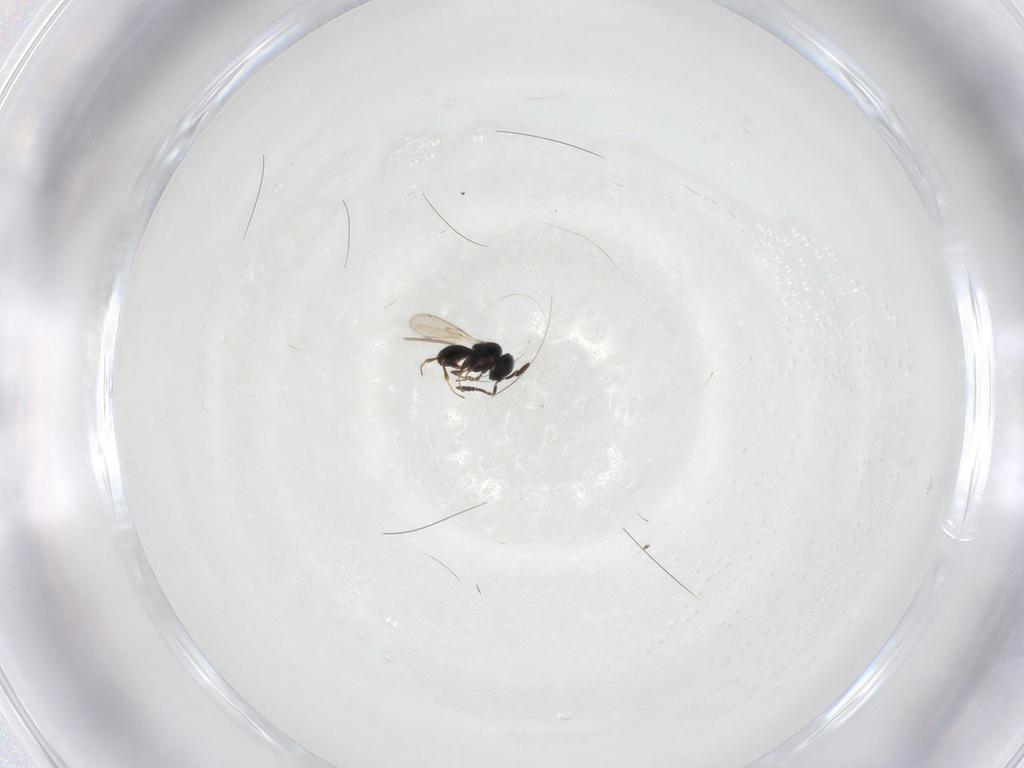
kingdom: Animalia
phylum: Arthropoda
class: Insecta
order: Hymenoptera
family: Scelionidae
